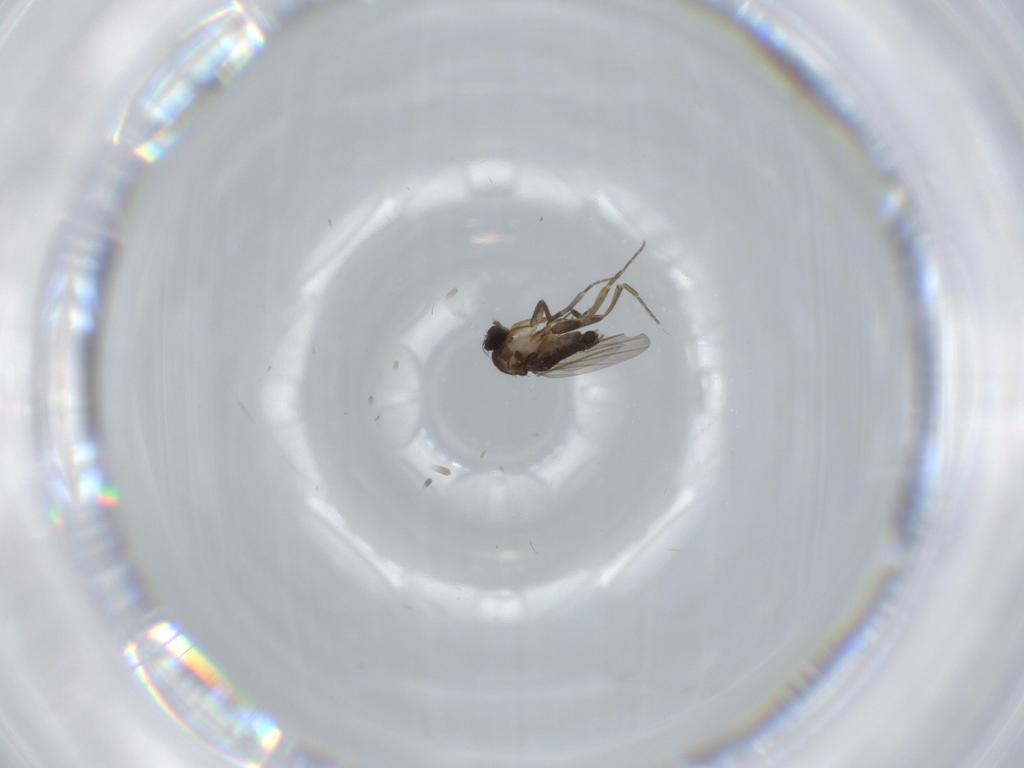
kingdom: Animalia
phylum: Arthropoda
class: Insecta
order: Diptera
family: Phoridae
